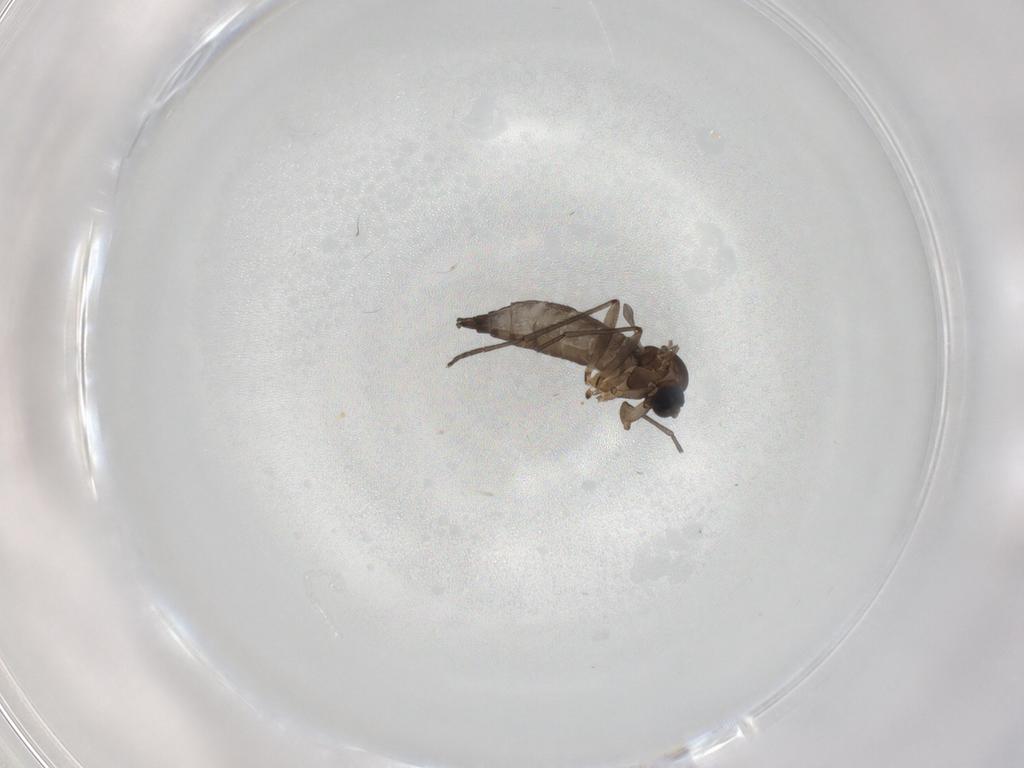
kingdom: Animalia
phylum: Arthropoda
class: Insecta
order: Diptera
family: Sciaridae
